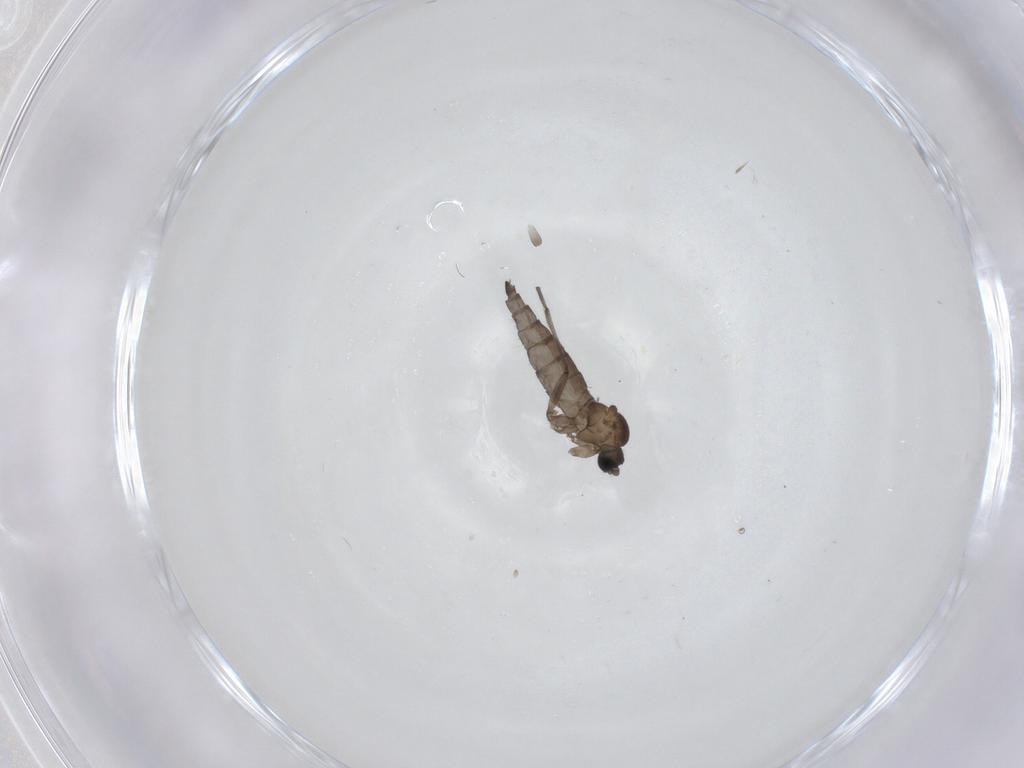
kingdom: Animalia
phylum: Arthropoda
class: Insecta
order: Diptera
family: Sciaridae
